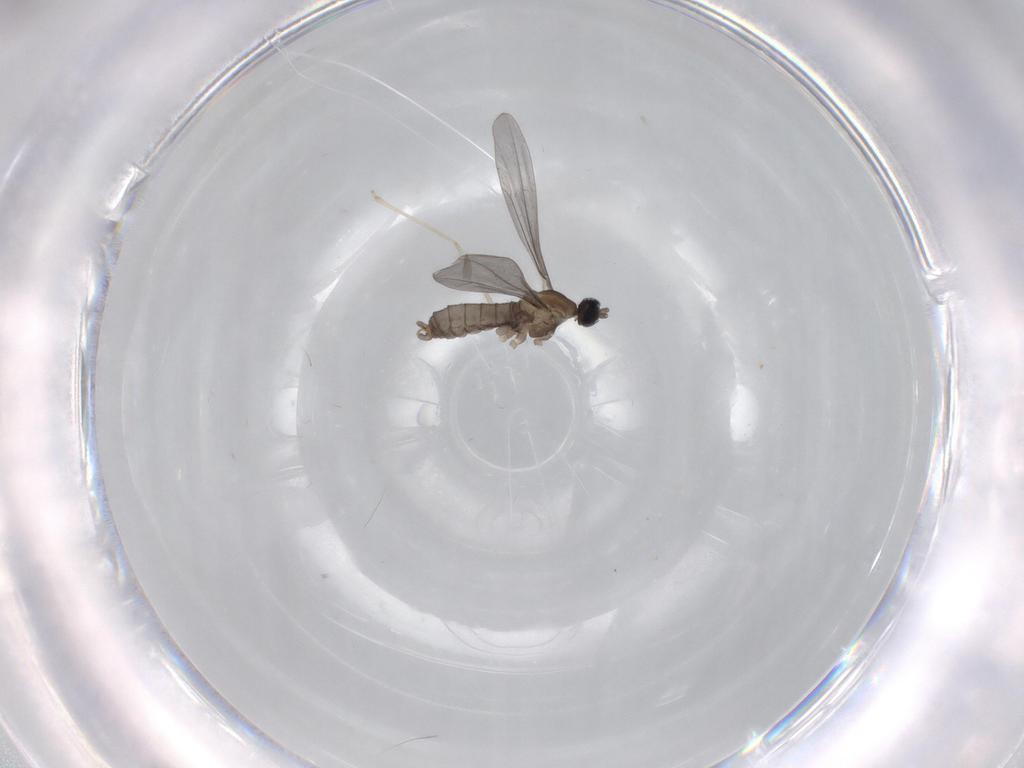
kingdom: Animalia
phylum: Arthropoda
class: Insecta
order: Diptera
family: Cecidomyiidae
